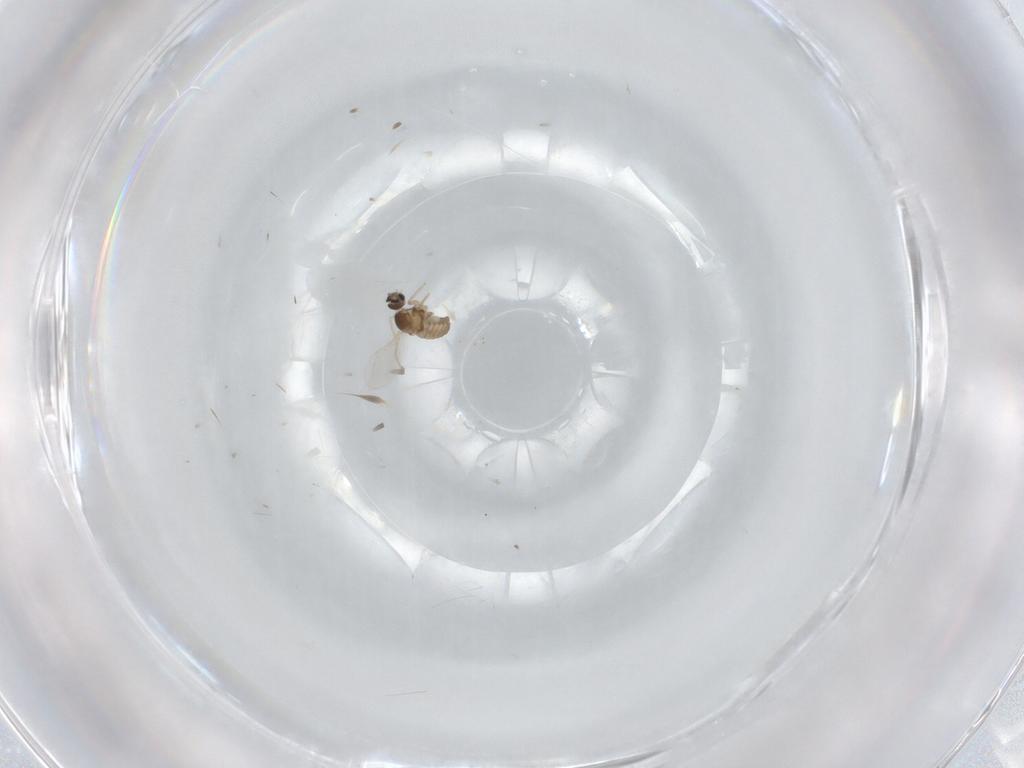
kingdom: Animalia
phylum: Arthropoda
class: Insecta
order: Diptera
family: Cecidomyiidae
